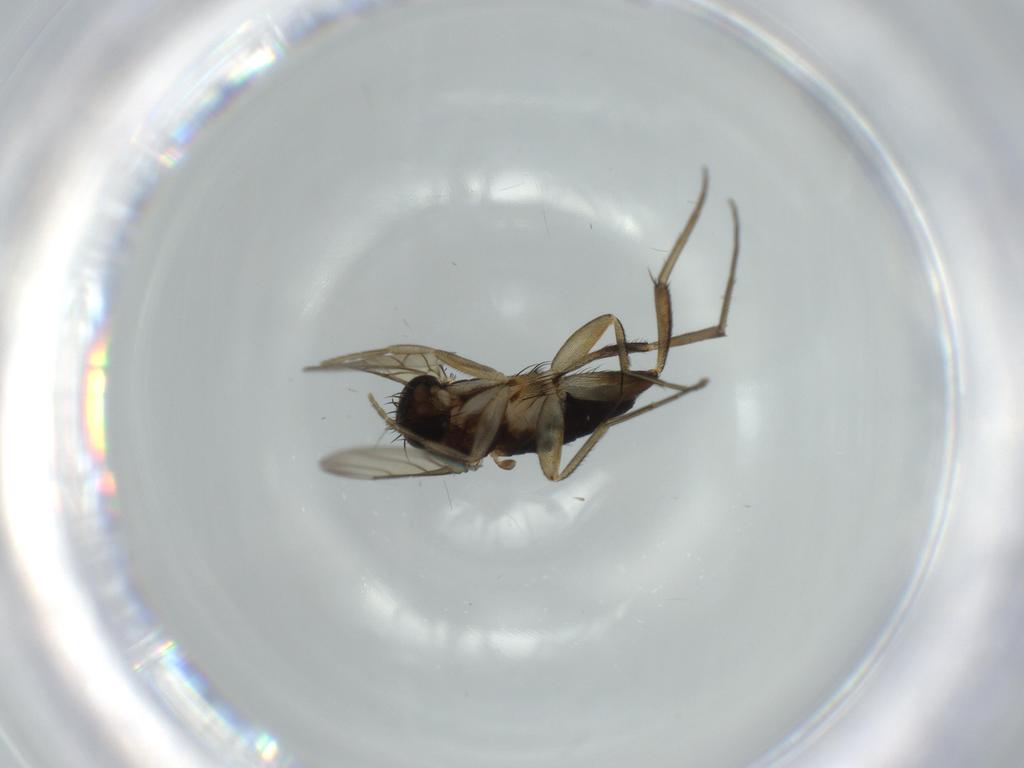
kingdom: Animalia
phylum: Arthropoda
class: Insecta
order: Diptera
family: Phoridae
